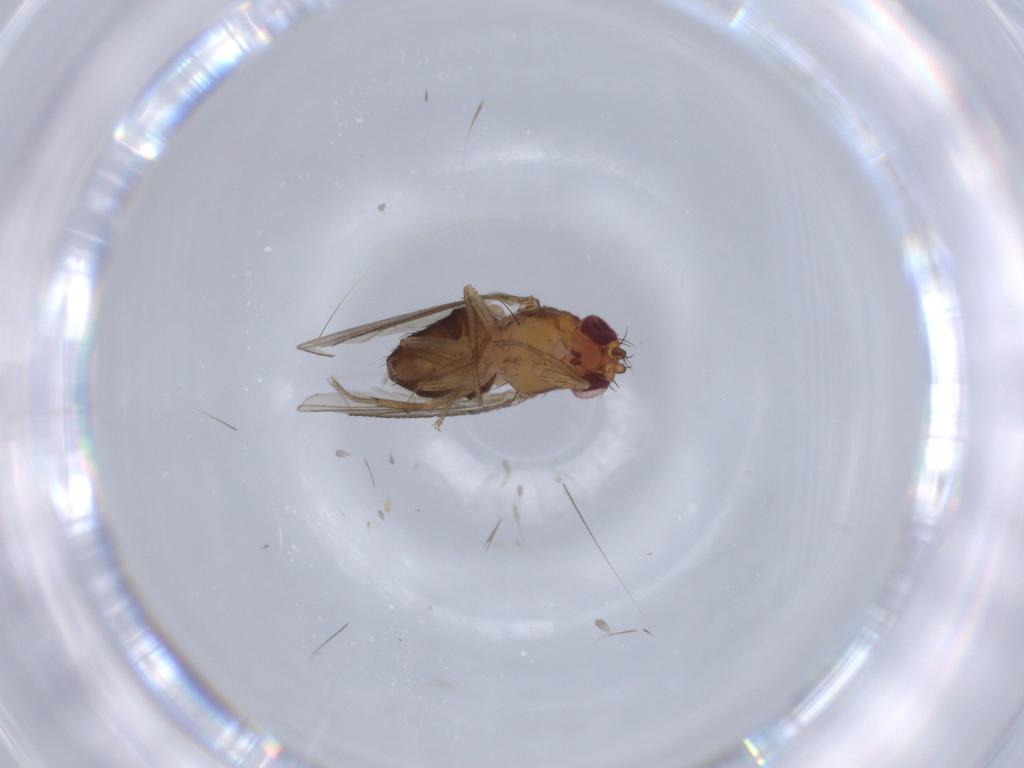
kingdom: Animalia
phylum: Arthropoda
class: Insecta
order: Diptera
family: Drosophilidae
